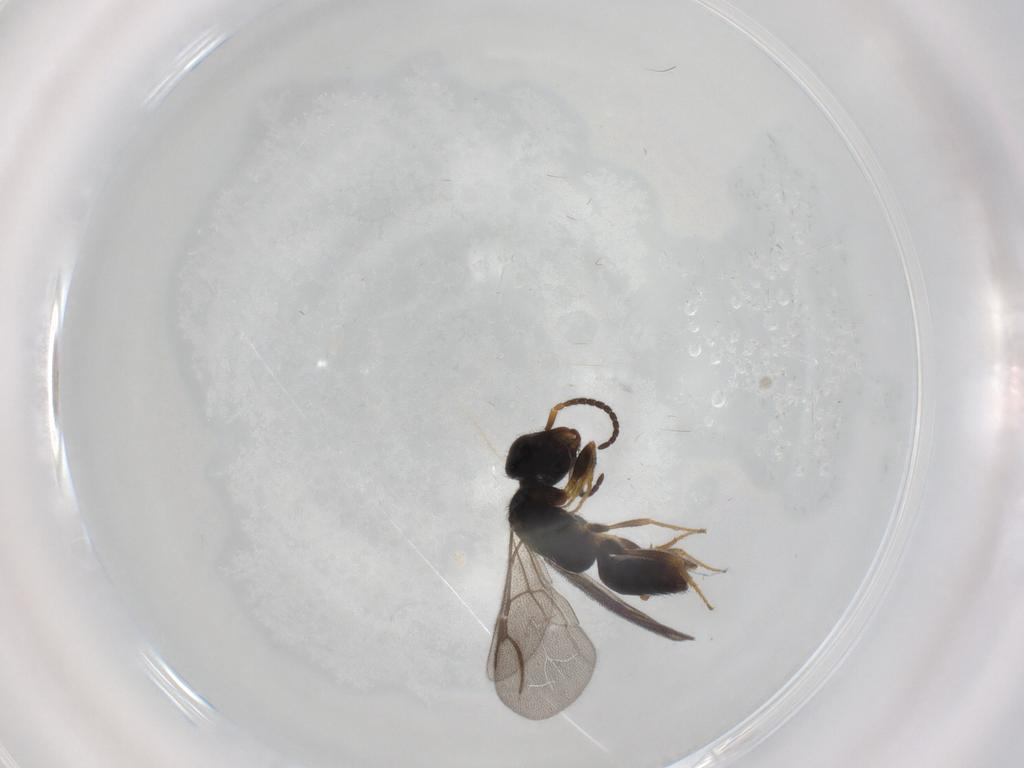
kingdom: Animalia
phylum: Arthropoda
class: Insecta
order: Hymenoptera
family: Bethylidae
